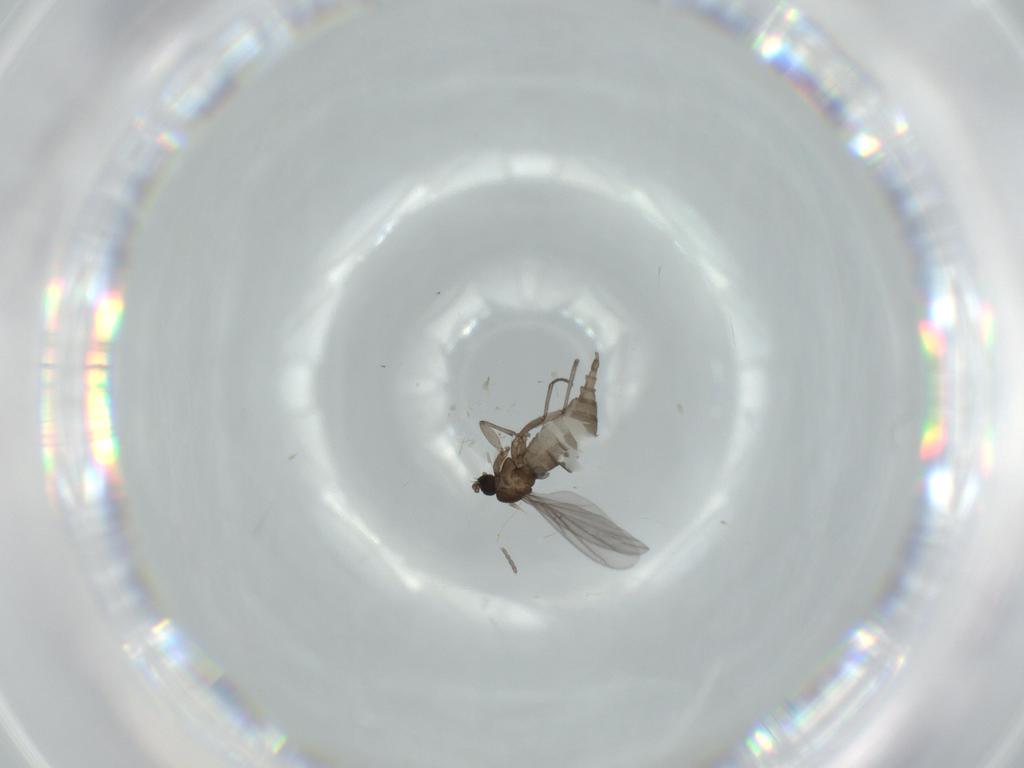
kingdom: Animalia
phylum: Arthropoda
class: Insecta
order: Diptera
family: Sciaridae
